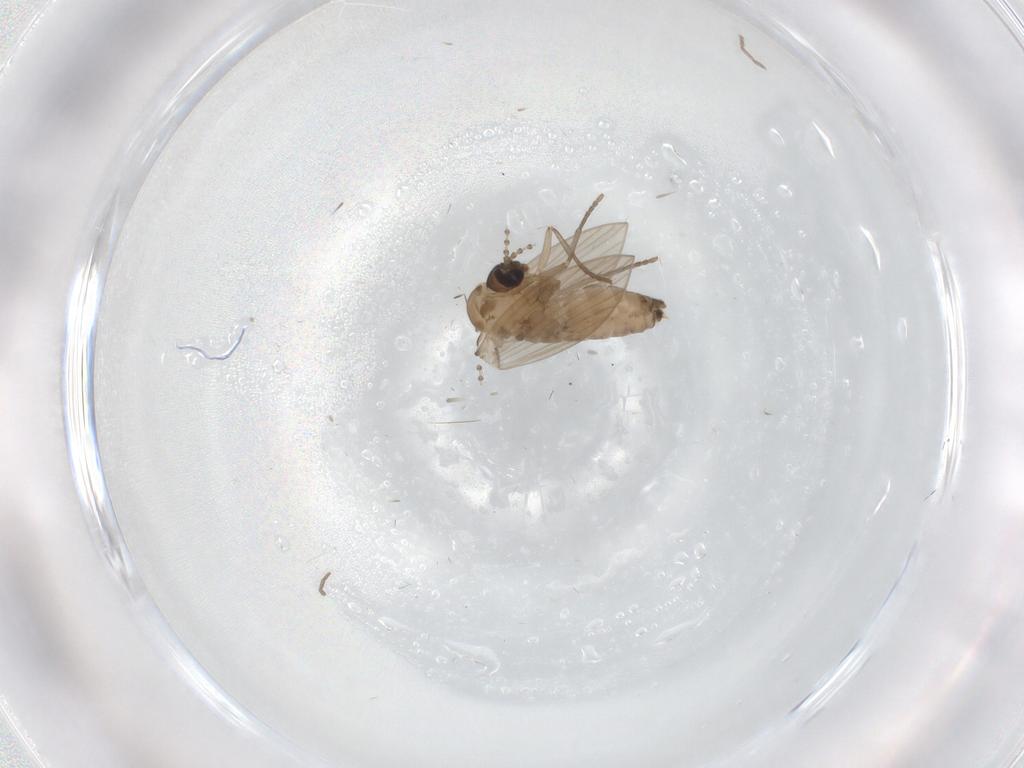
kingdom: Animalia
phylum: Arthropoda
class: Insecta
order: Diptera
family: Psychodidae
